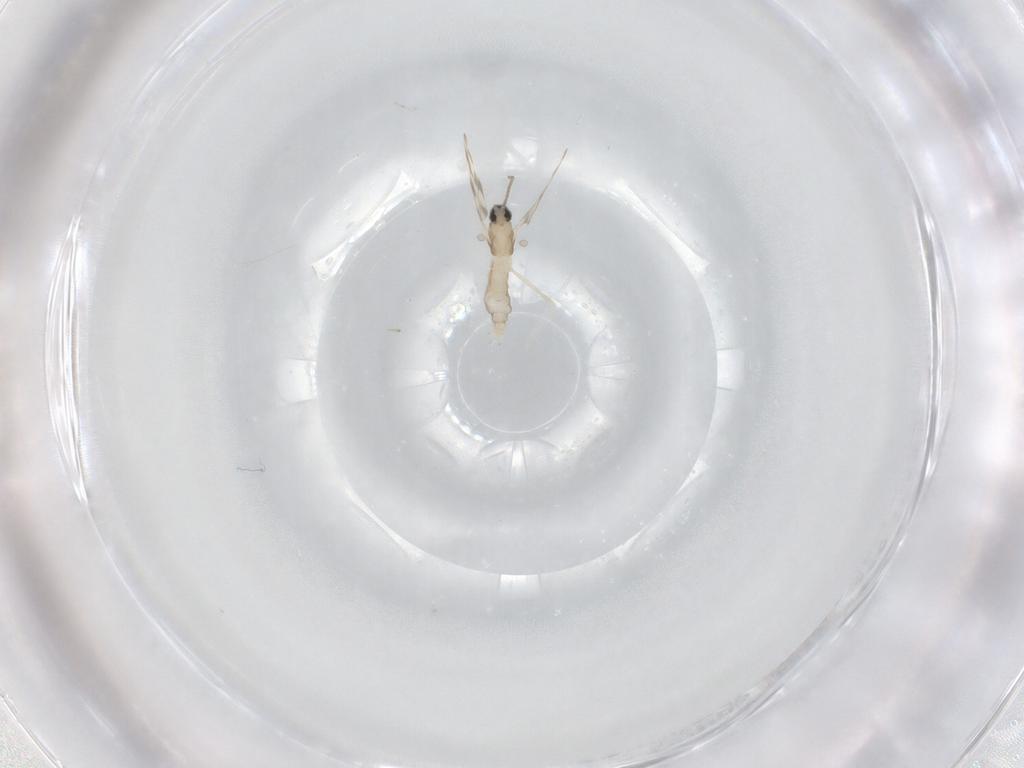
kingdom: Animalia
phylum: Arthropoda
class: Insecta
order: Diptera
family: Cecidomyiidae
